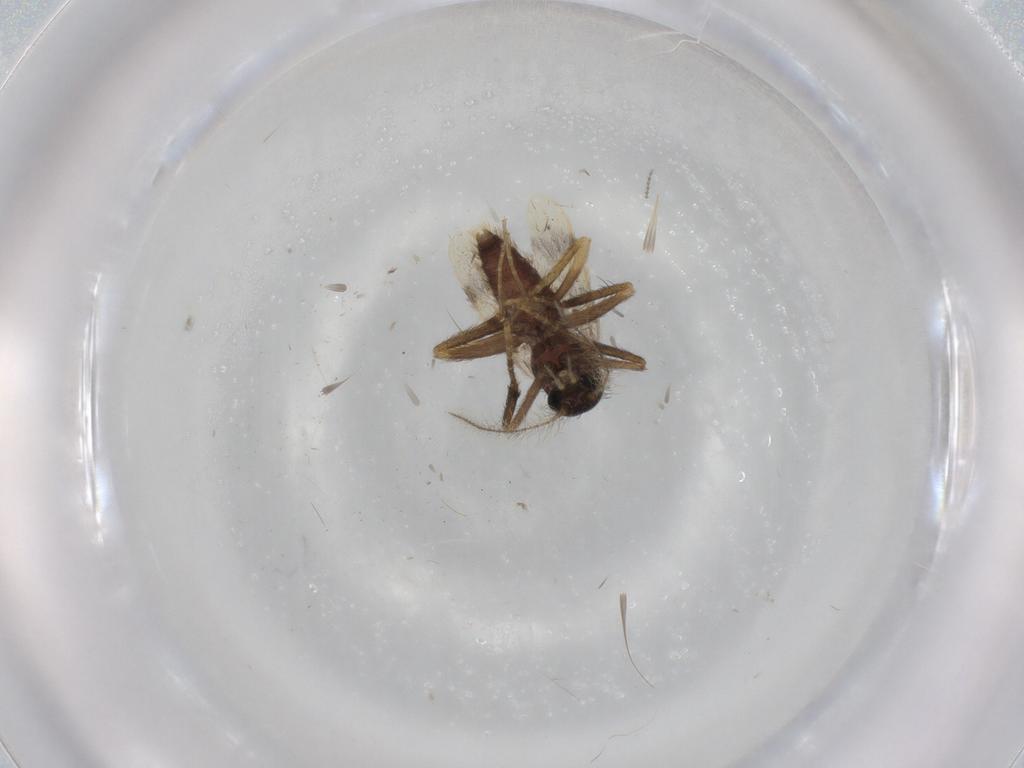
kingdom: Animalia
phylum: Arthropoda
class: Insecta
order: Diptera
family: Corethrellidae
